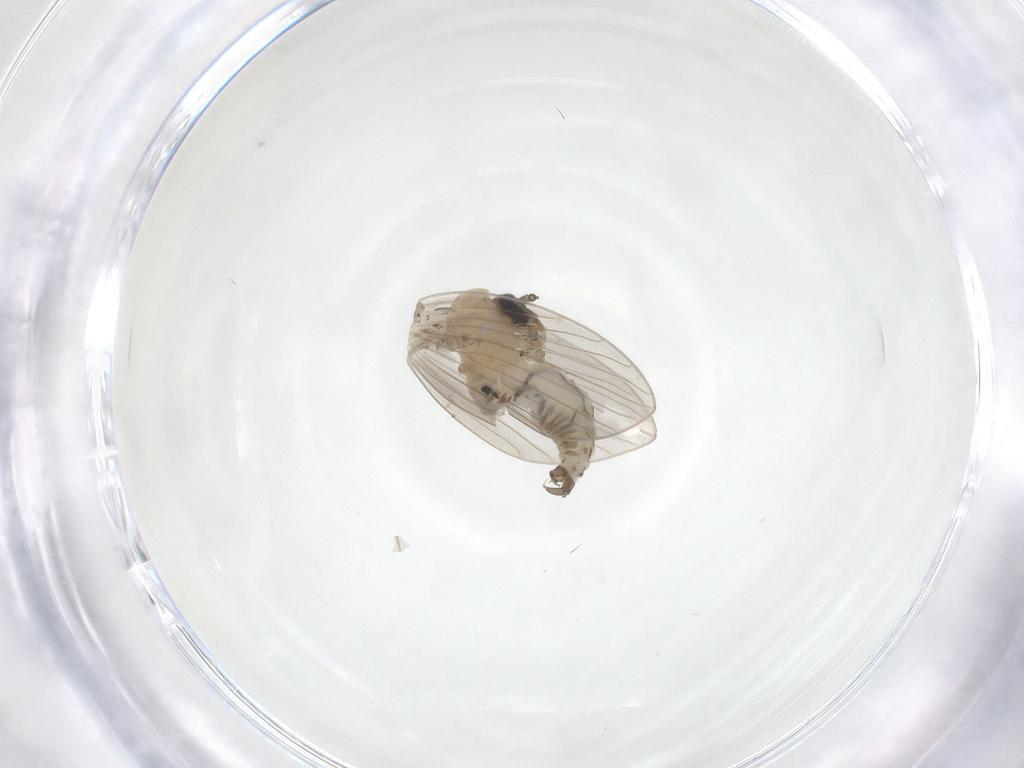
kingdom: Animalia
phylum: Arthropoda
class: Insecta
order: Diptera
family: Psychodidae
